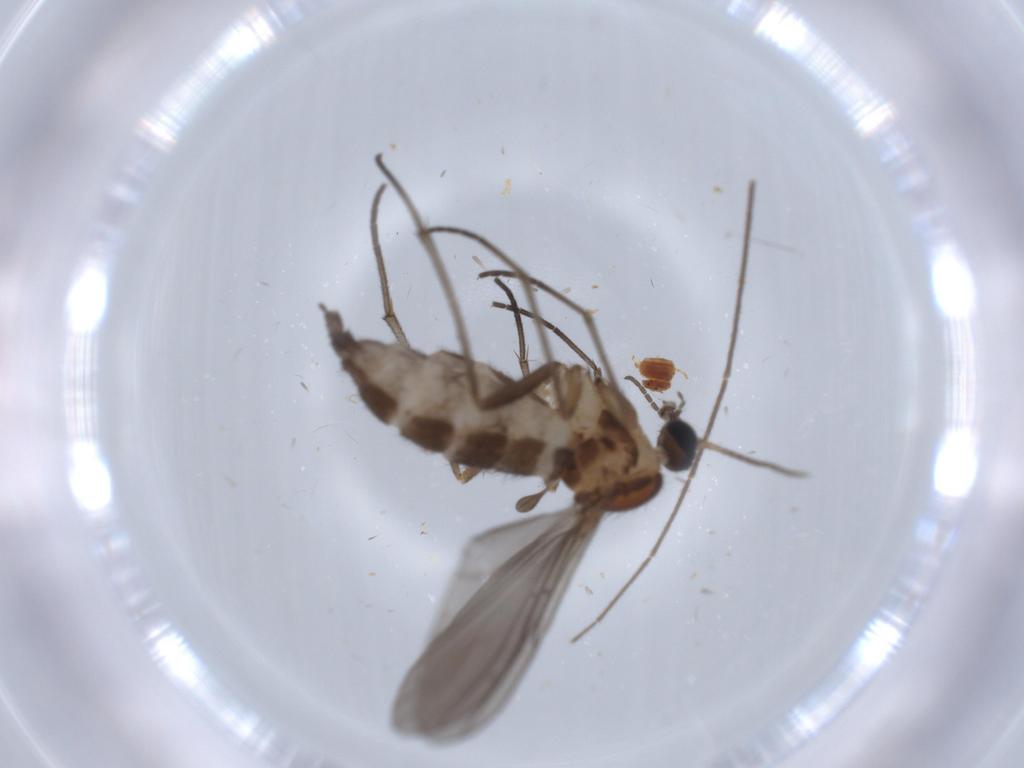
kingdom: Animalia
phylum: Arthropoda
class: Insecta
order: Diptera
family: Sciaridae
